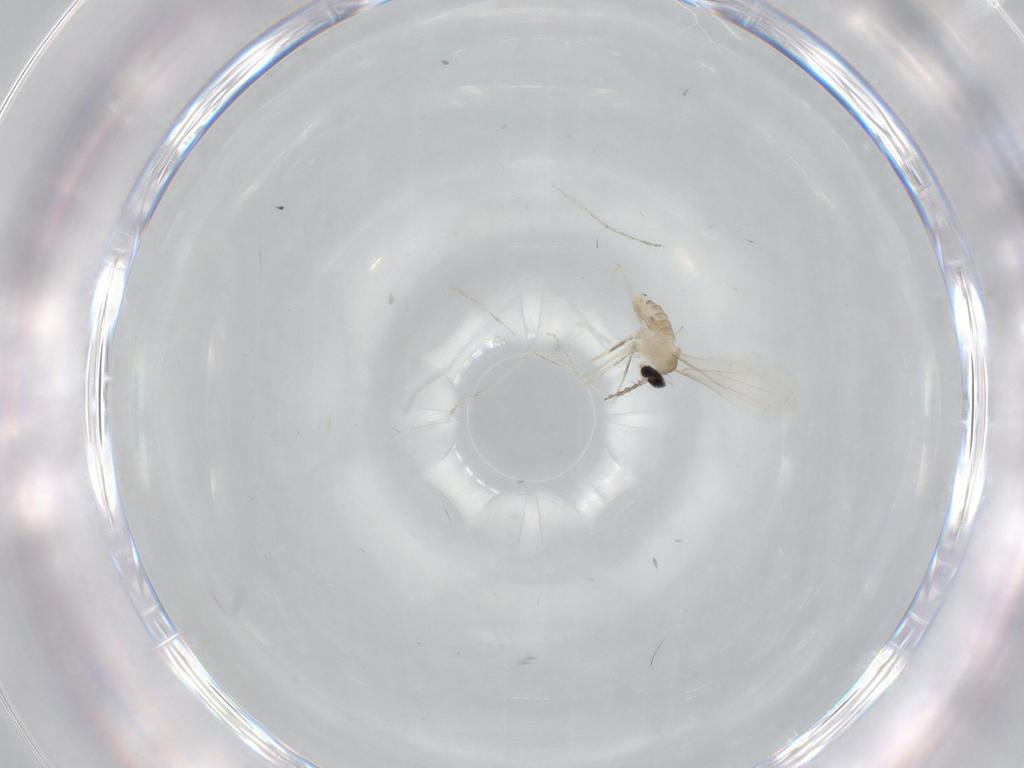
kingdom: Animalia
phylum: Arthropoda
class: Insecta
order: Diptera
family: Cecidomyiidae
